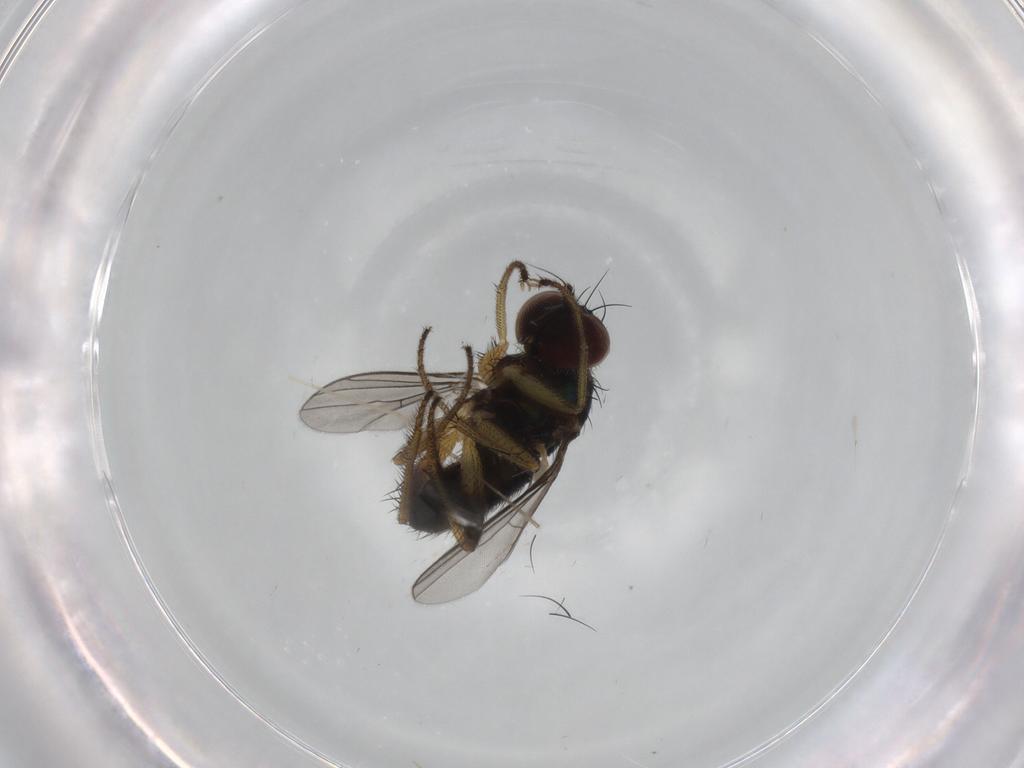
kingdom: Animalia
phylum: Arthropoda
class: Insecta
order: Diptera
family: Dolichopodidae
